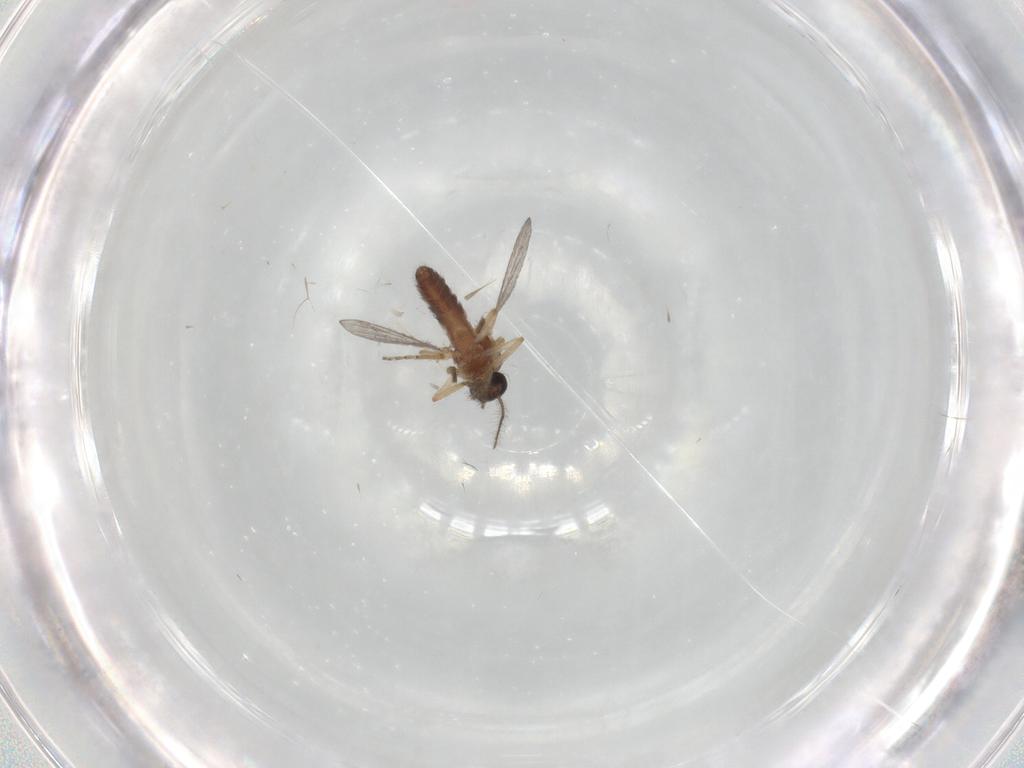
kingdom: Animalia
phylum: Arthropoda
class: Insecta
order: Diptera
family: Ceratopogonidae
